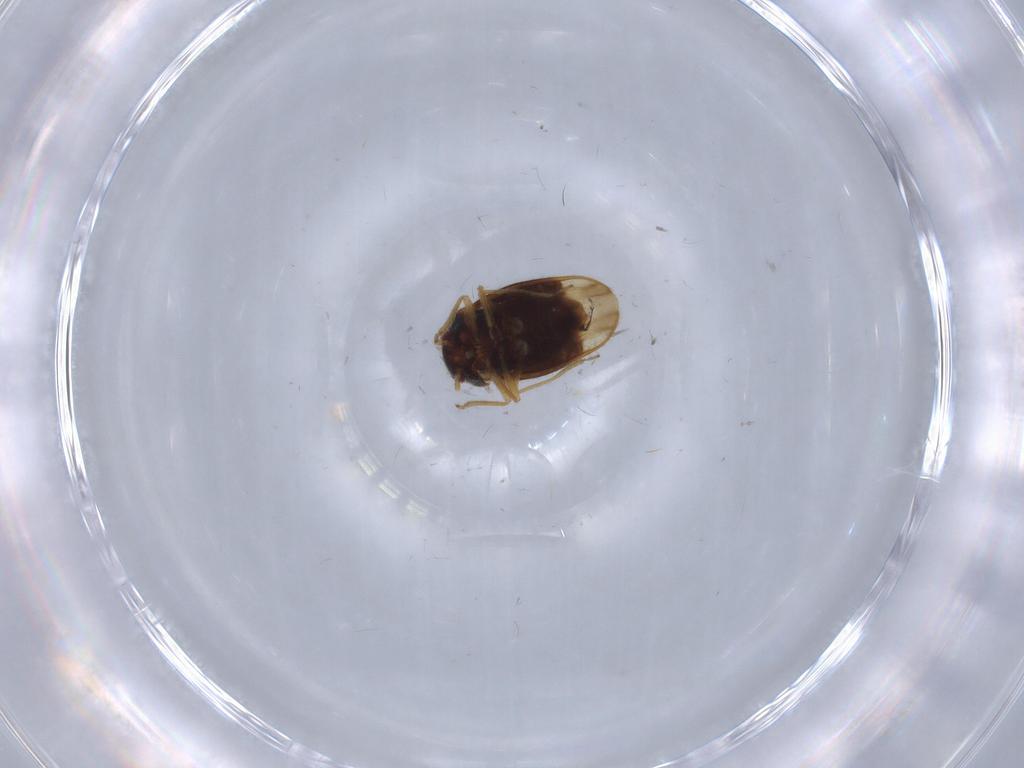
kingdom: Animalia
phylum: Arthropoda
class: Insecta
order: Hemiptera
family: Schizopteridae
